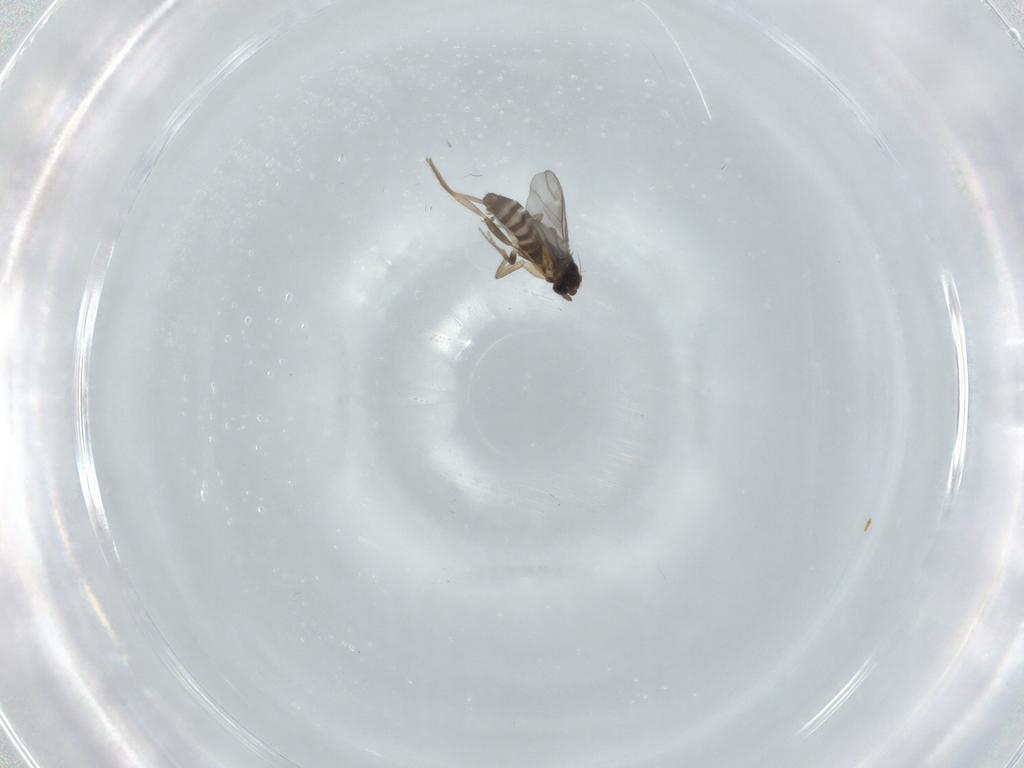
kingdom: Animalia
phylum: Arthropoda
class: Insecta
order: Diptera
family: Chironomidae
